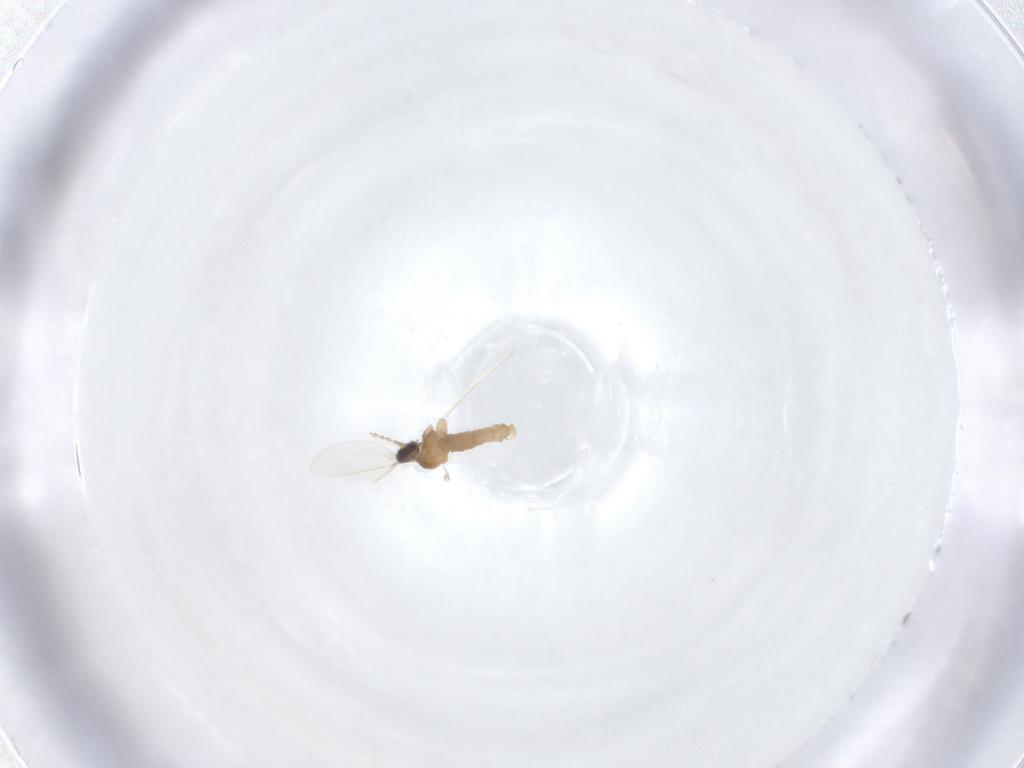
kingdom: Animalia
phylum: Arthropoda
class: Insecta
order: Diptera
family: Cecidomyiidae
